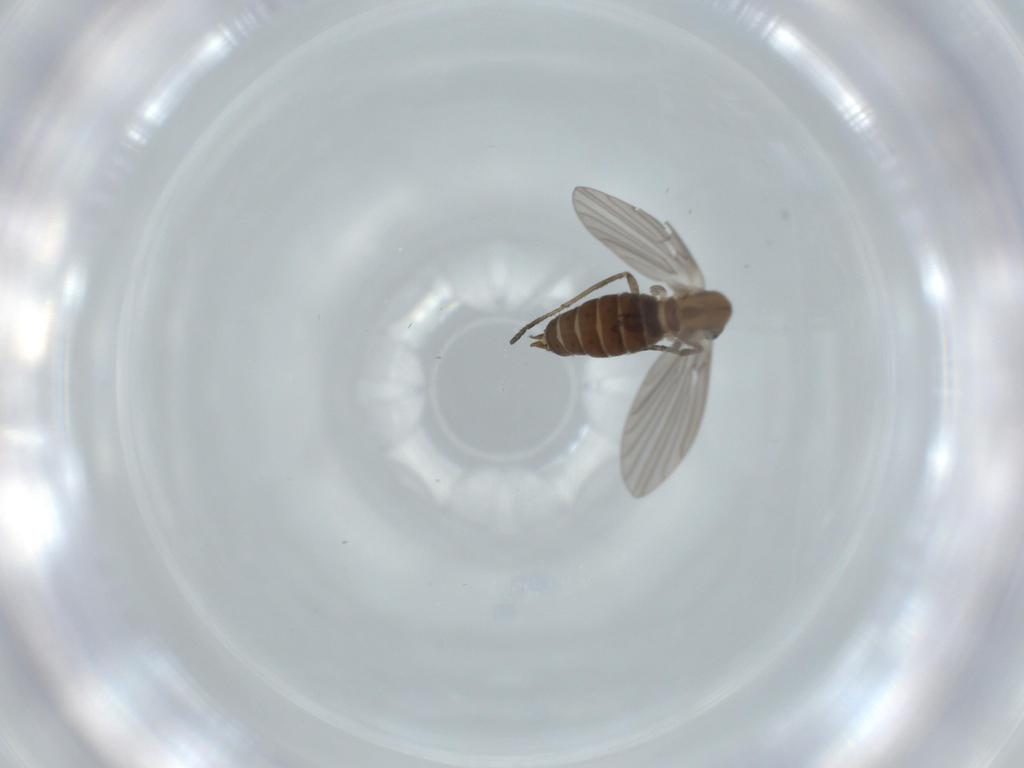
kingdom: Animalia
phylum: Arthropoda
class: Insecta
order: Diptera
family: Psychodidae
